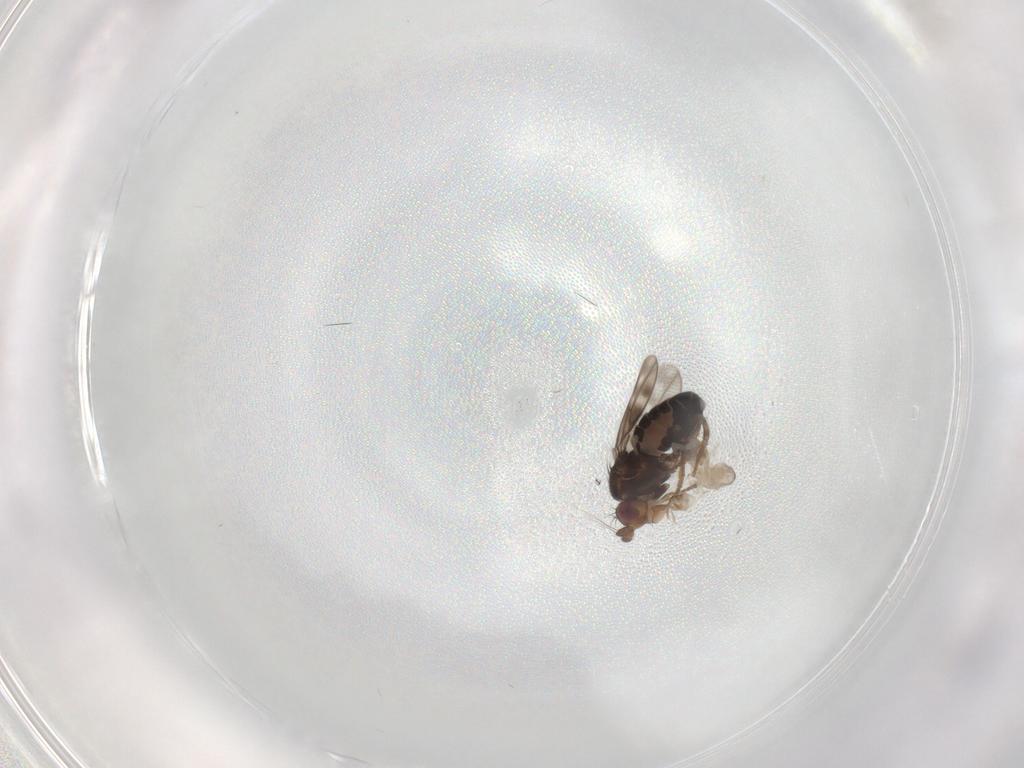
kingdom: Animalia
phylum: Arthropoda
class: Insecta
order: Diptera
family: Cecidomyiidae
